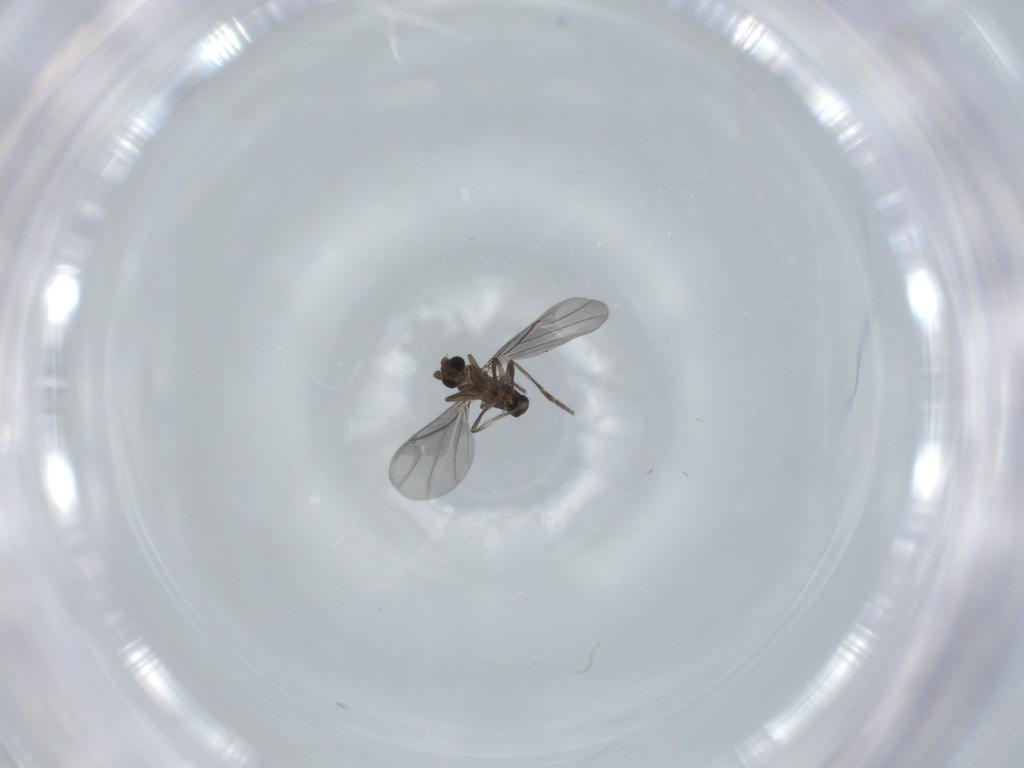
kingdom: Animalia
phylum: Arthropoda
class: Insecta
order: Diptera
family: Phoridae
